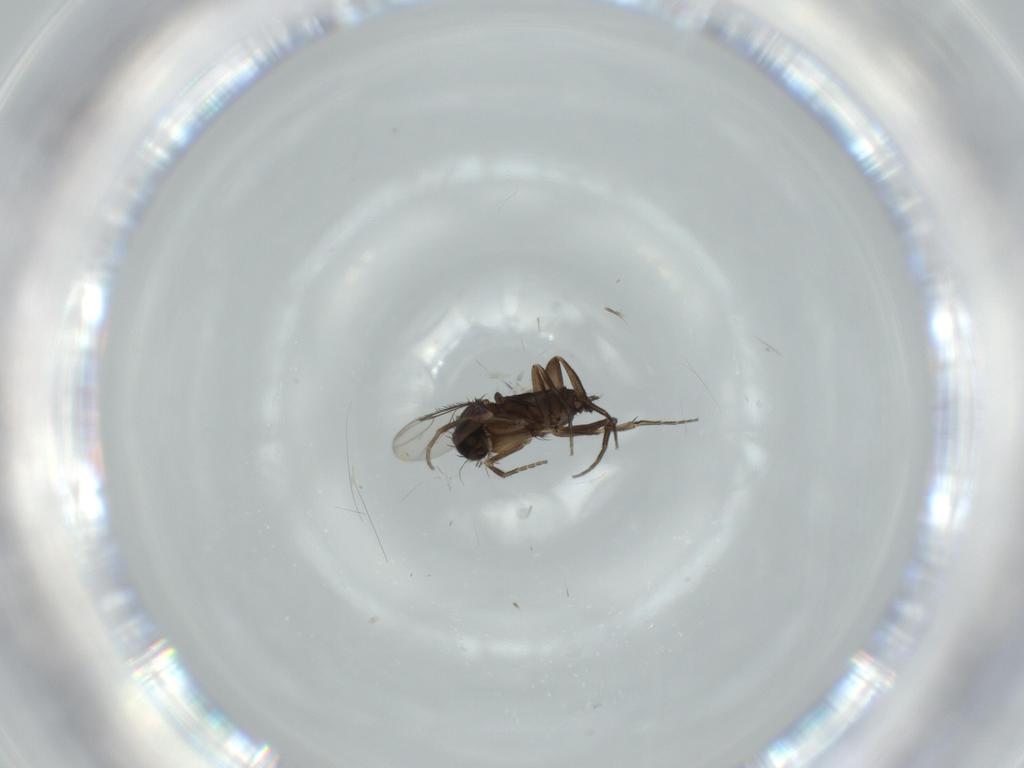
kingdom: Animalia
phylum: Arthropoda
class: Insecta
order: Diptera
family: Phoridae
